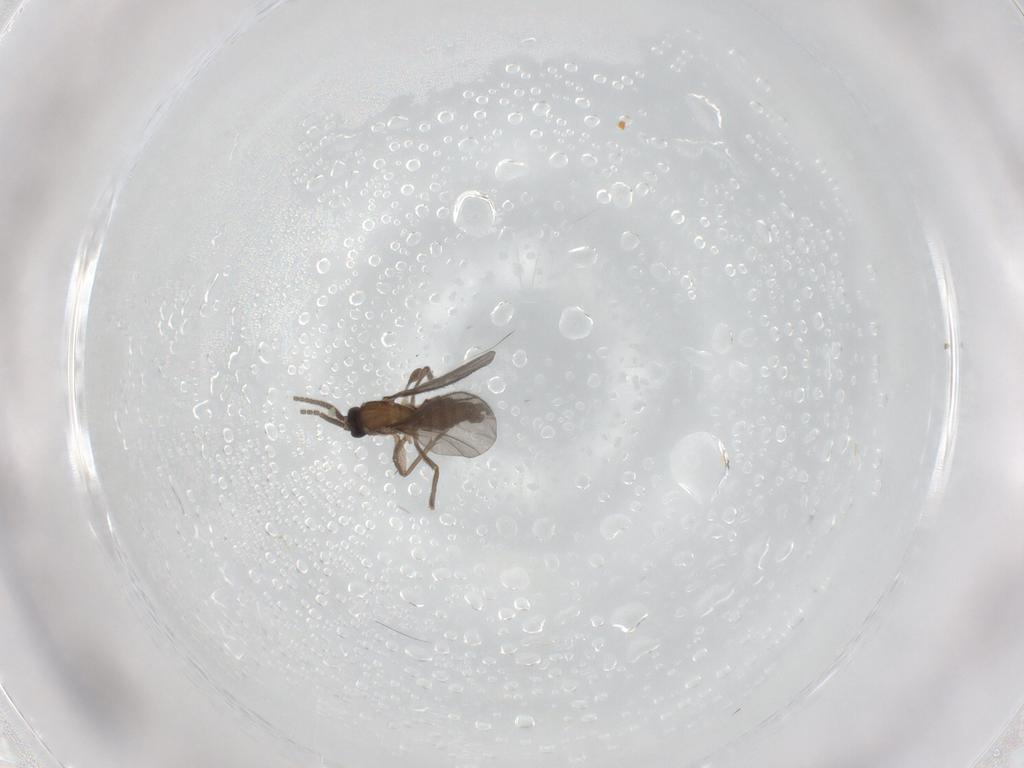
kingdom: Animalia
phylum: Arthropoda
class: Insecta
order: Diptera
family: Sciaridae
